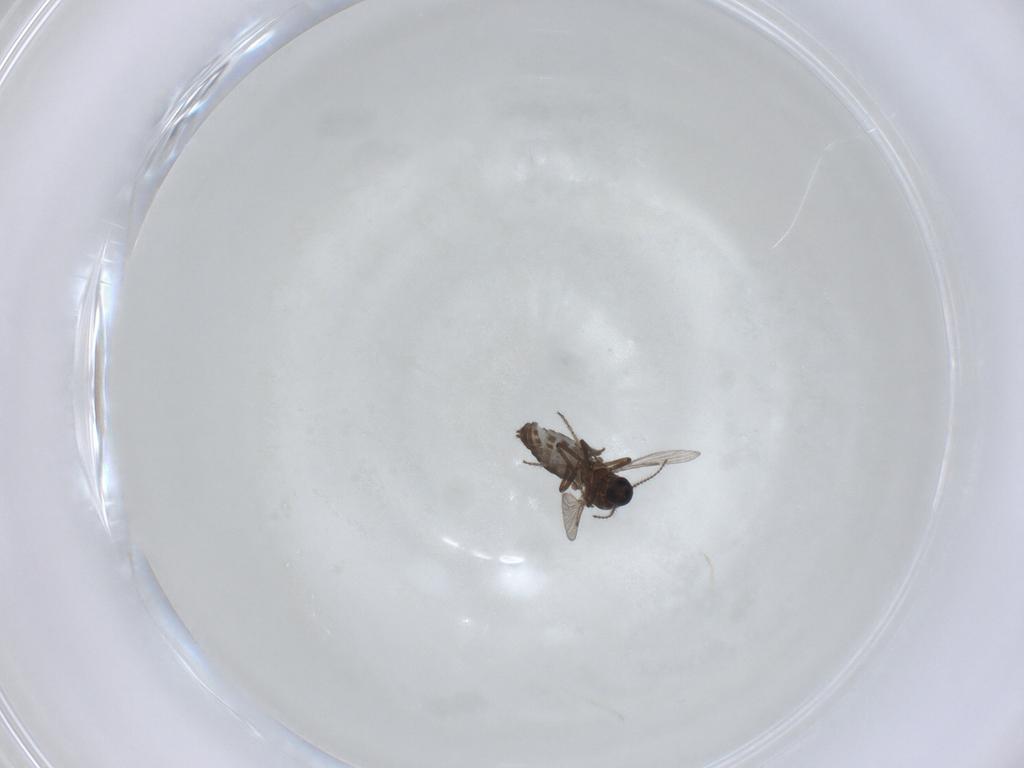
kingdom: Animalia
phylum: Arthropoda
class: Insecta
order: Diptera
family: Ceratopogonidae
